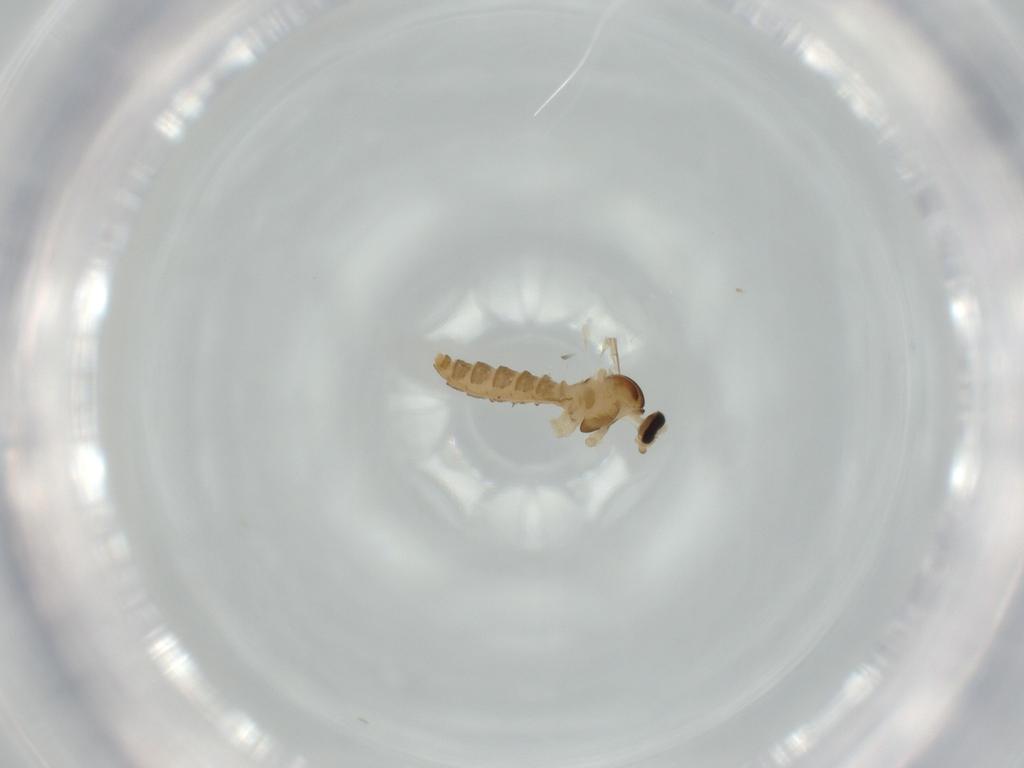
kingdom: Animalia
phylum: Arthropoda
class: Insecta
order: Diptera
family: Cecidomyiidae
